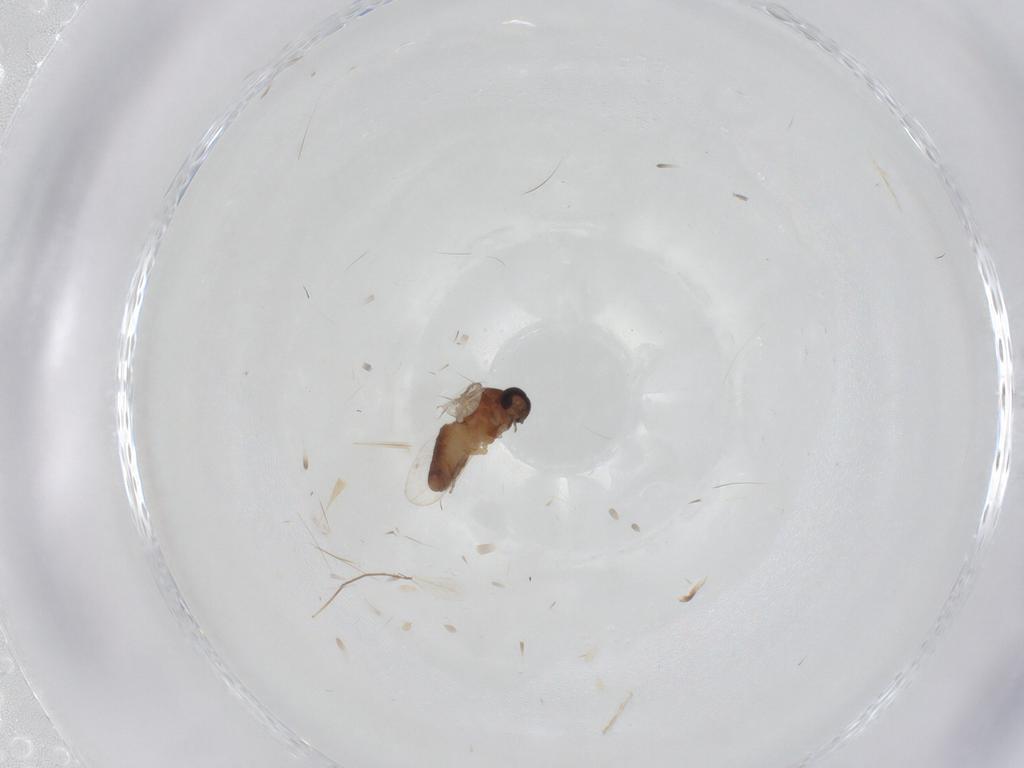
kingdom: Animalia
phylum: Arthropoda
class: Insecta
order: Diptera
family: Ceratopogonidae
